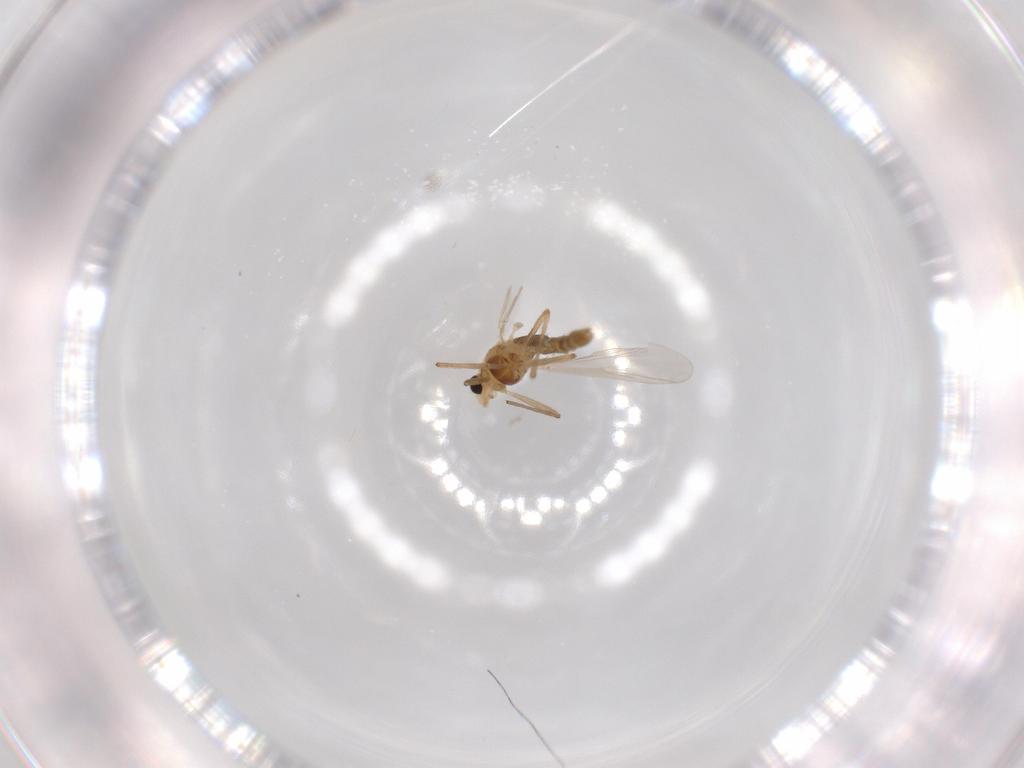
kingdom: Animalia
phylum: Arthropoda
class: Insecta
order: Diptera
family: Chironomidae
